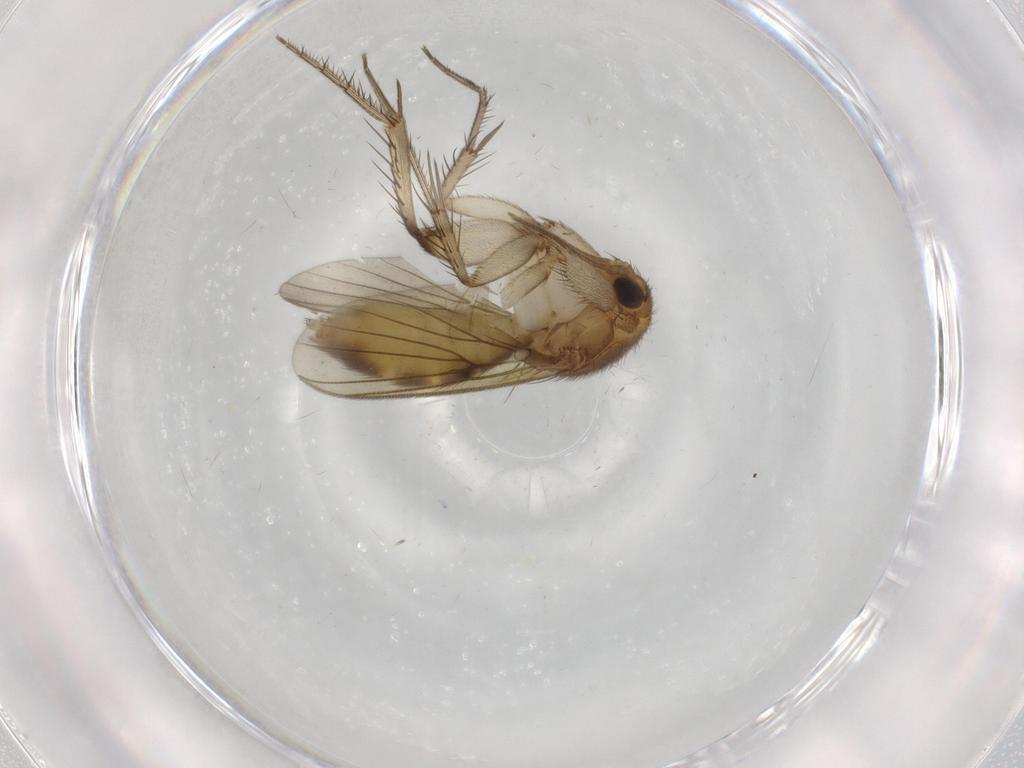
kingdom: Animalia
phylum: Arthropoda
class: Insecta
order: Diptera
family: Mycetophilidae
